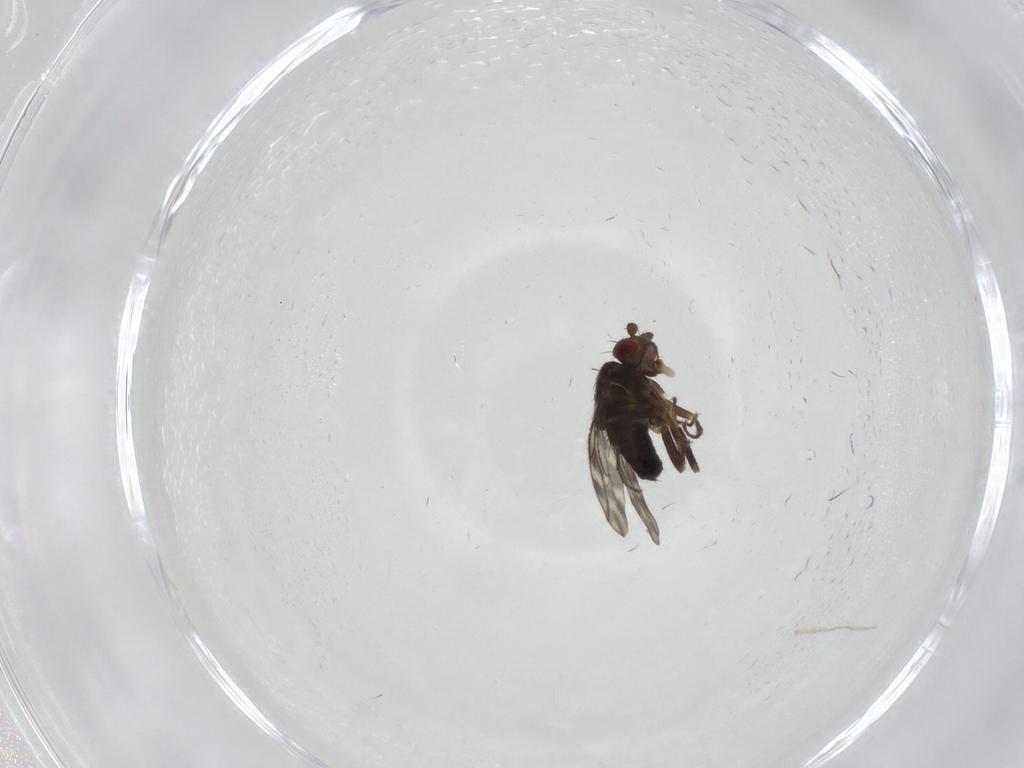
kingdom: Animalia
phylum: Arthropoda
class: Insecta
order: Diptera
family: Sphaeroceridae
